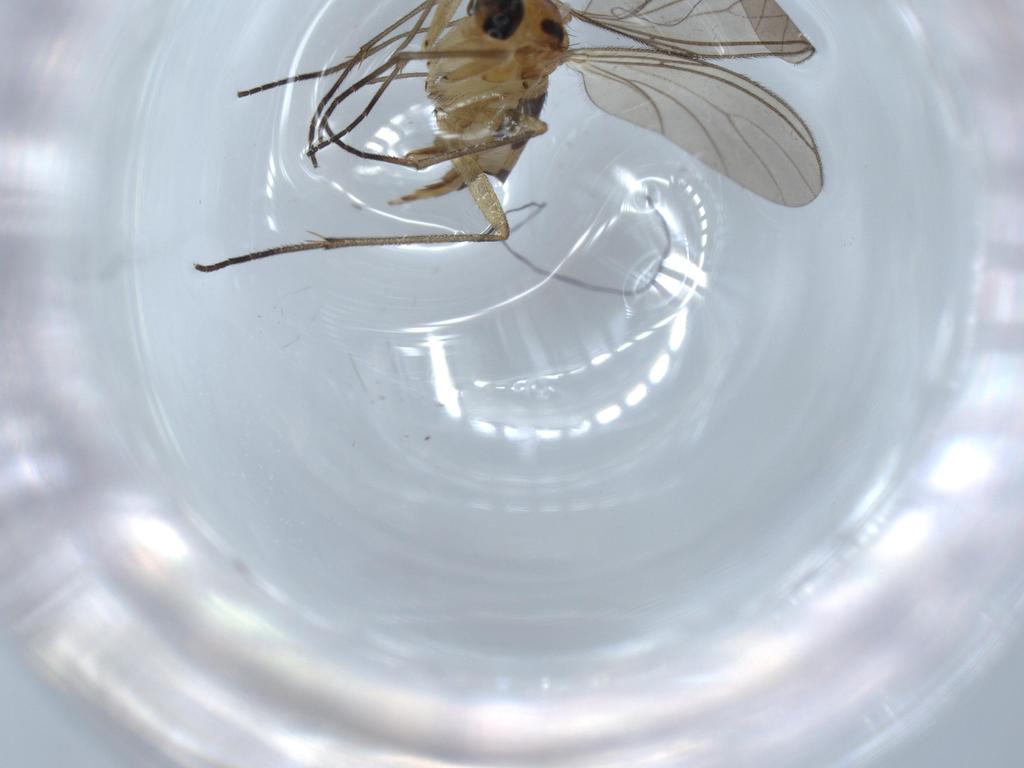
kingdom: Animalia
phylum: Arthropoda
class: Insecta
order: Diptera
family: Sciaridae
